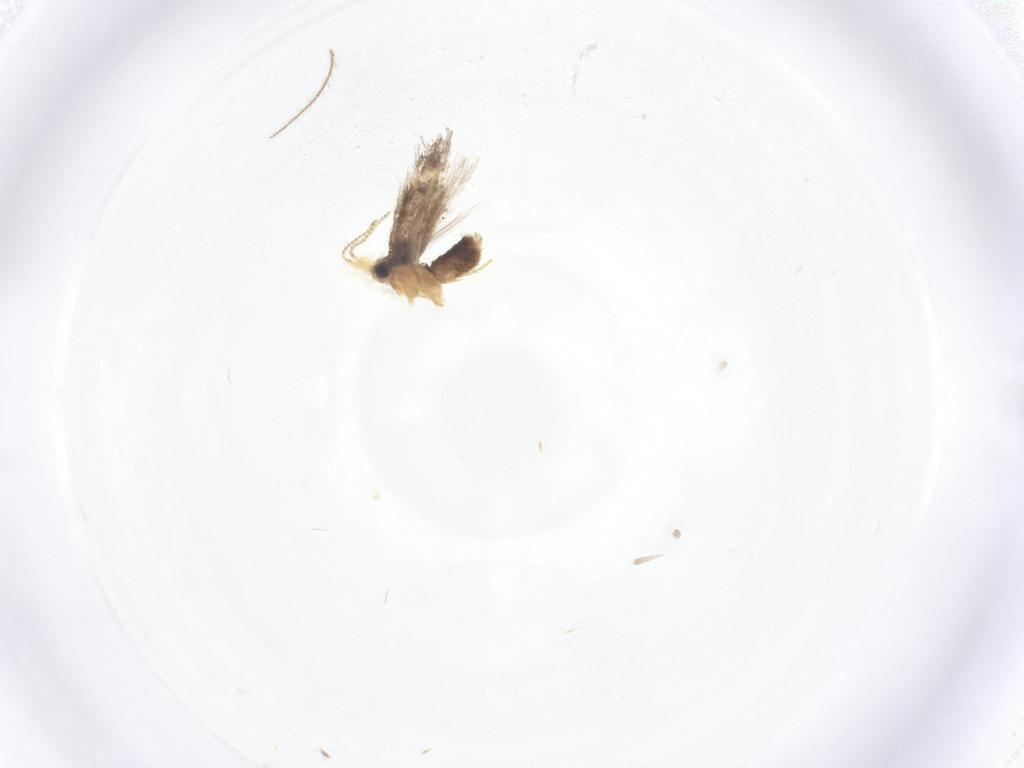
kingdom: Animalia
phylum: Arthropoda
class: Insecta
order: Lepidoptera
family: Nepticulidae
